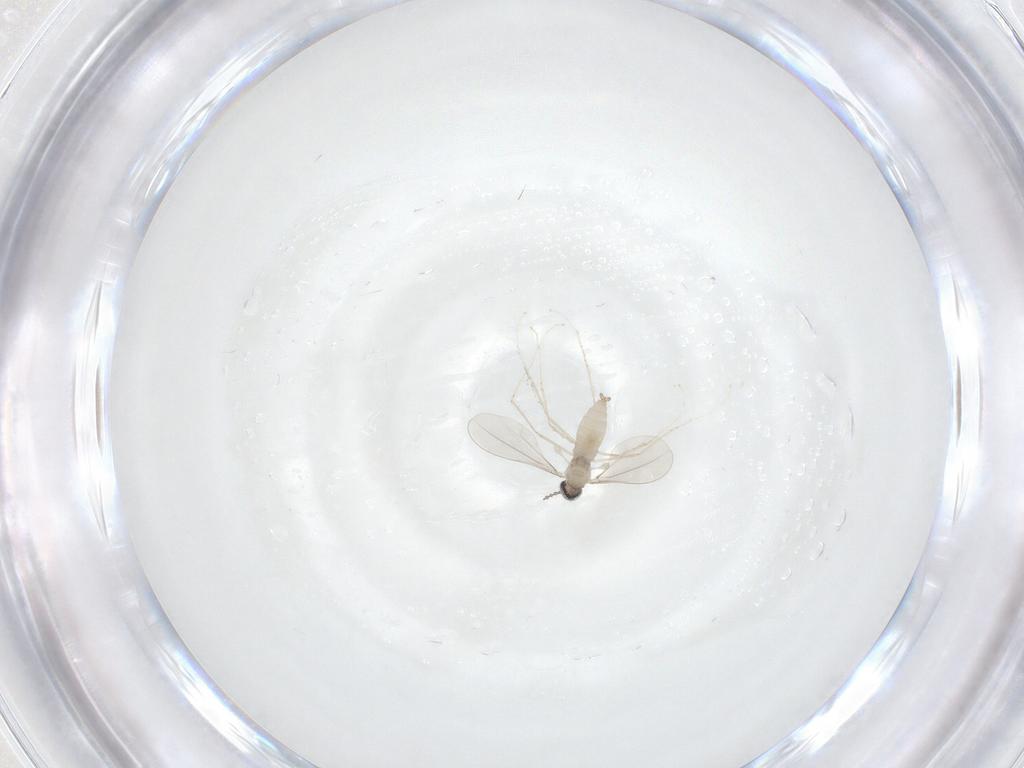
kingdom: Animalia
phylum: Arthropoda
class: Insecta
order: Diptera
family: Cecidomyiidae
